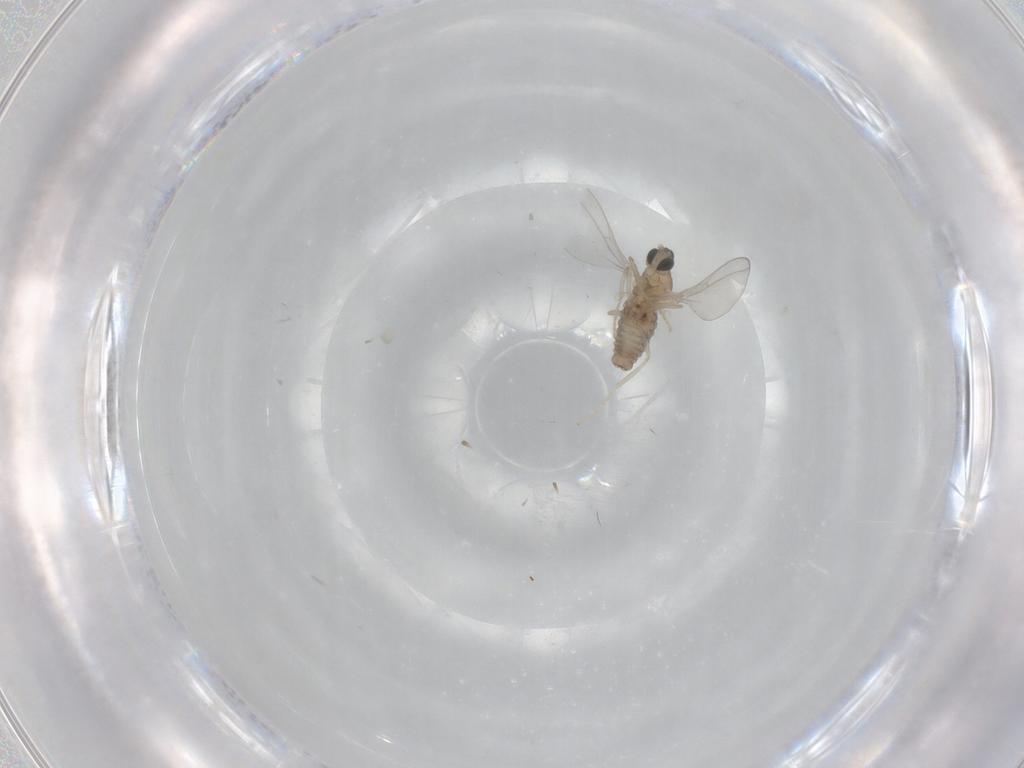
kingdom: Animalia
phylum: Arthropoda
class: Insecta
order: Diptera
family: Cecidomyiidae
